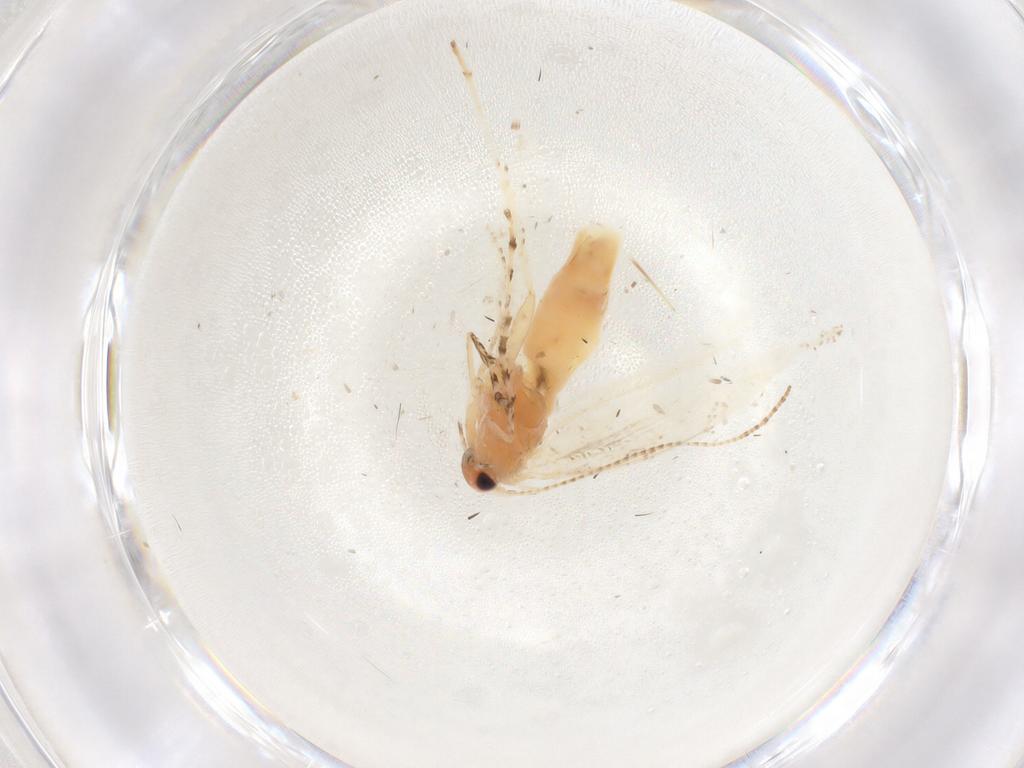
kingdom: Animalia
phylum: Arthropoda
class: Insecta
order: Lepidoptera
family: Gracillariidae
